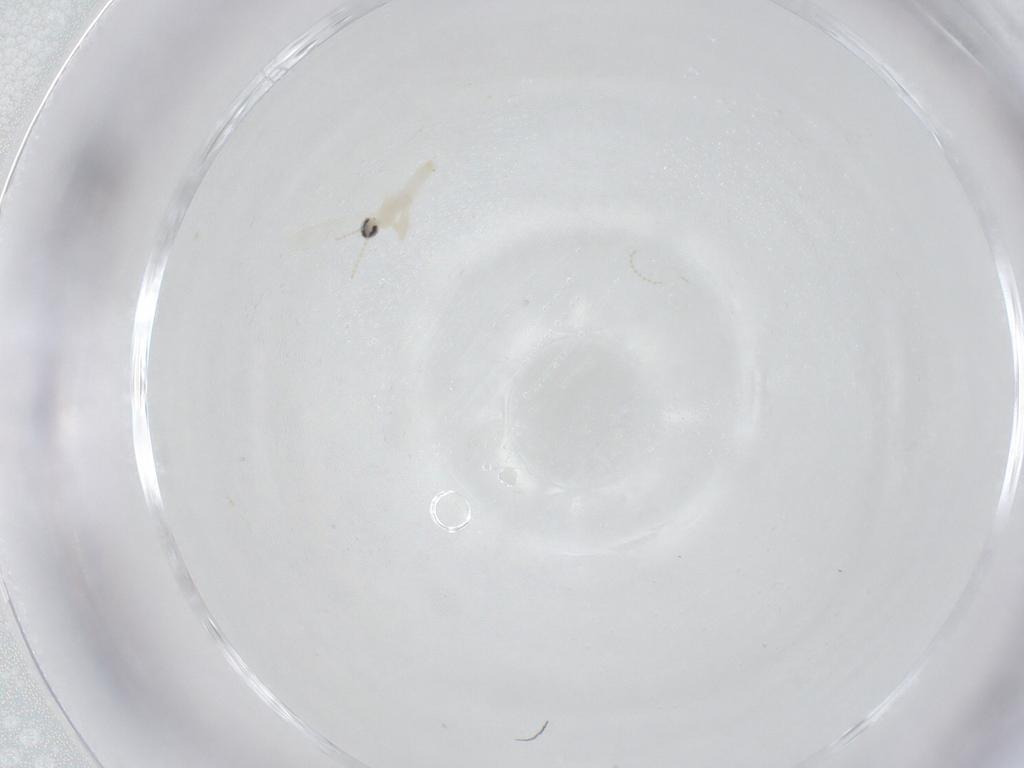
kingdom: Animalia
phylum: Arthropoda
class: Insecta
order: Diptera
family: Ceratopogonidae
